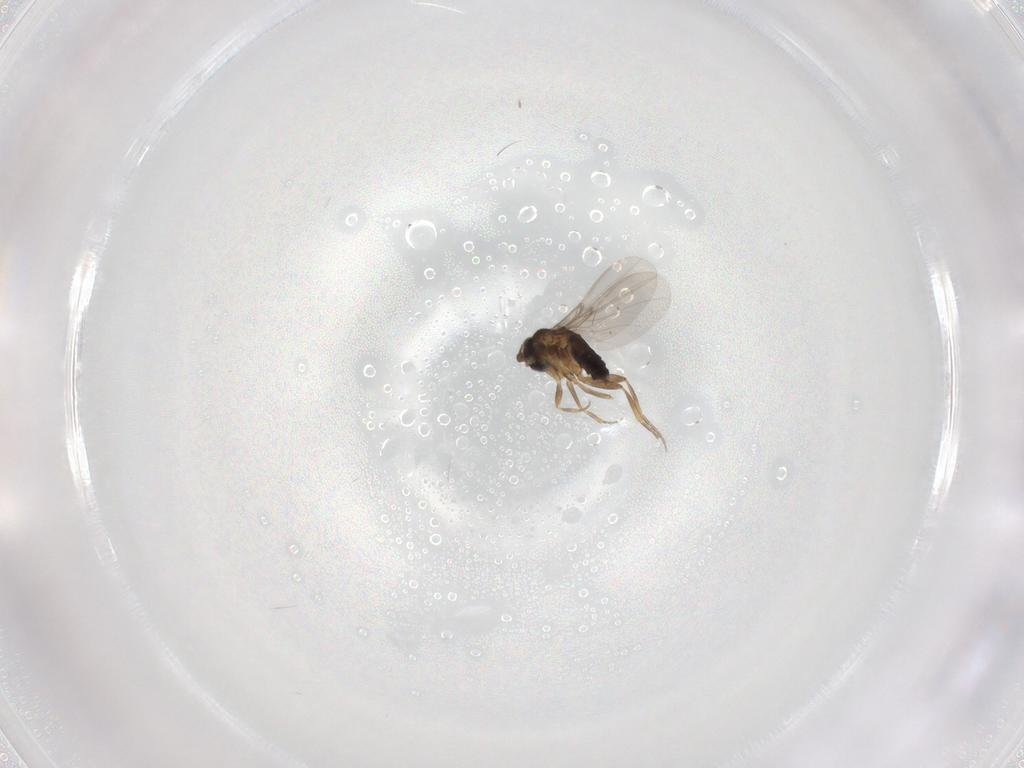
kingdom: Animalia
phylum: Arthropoda
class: Insecta
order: Diptera
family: Phoridae
